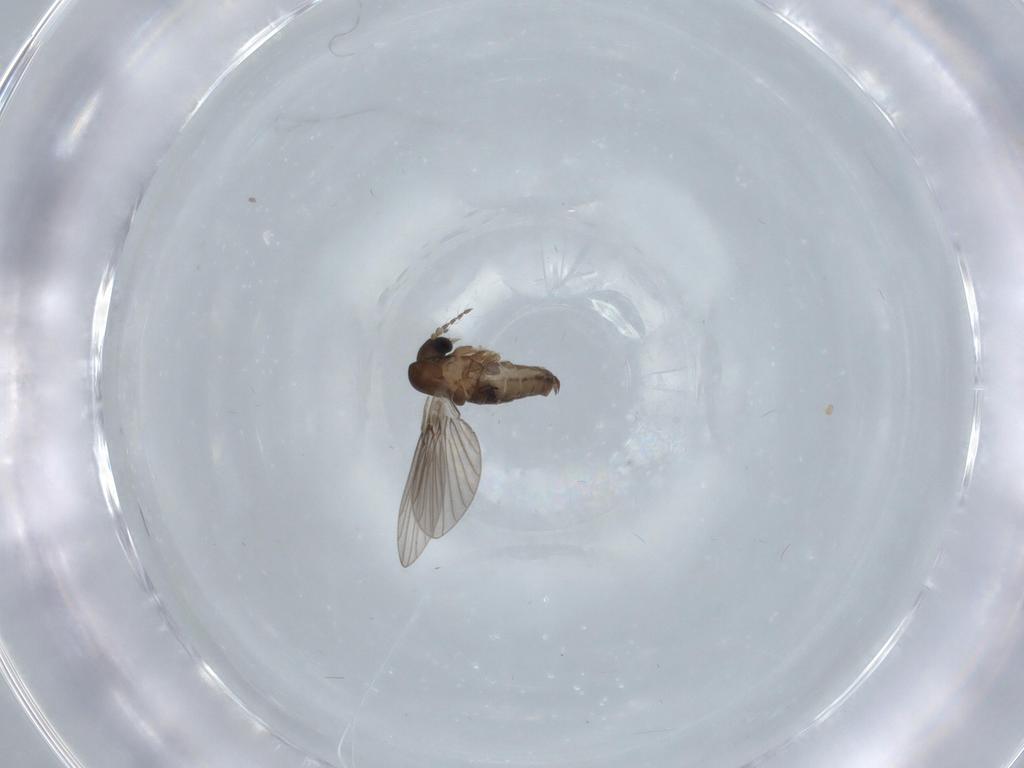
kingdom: Animalia
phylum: Arthropoda
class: Insecta
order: Diptera
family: Psychodidae
